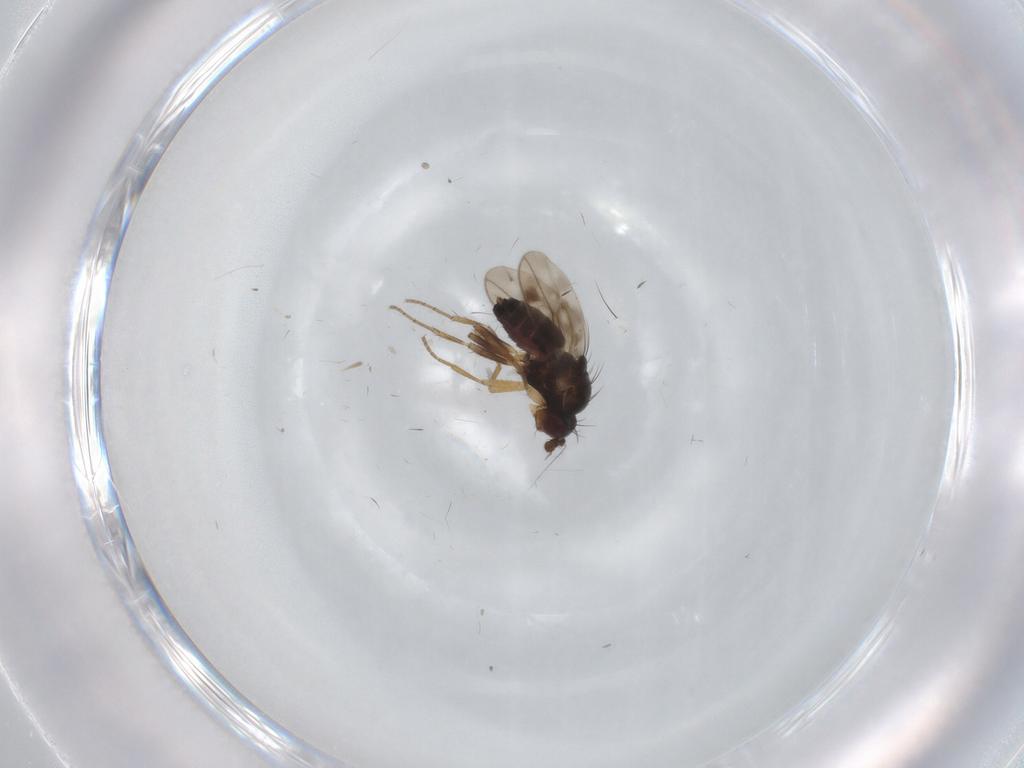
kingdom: Animalia
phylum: Arthropoda
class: Insecta
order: Diptera
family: Sphaeroceridae
